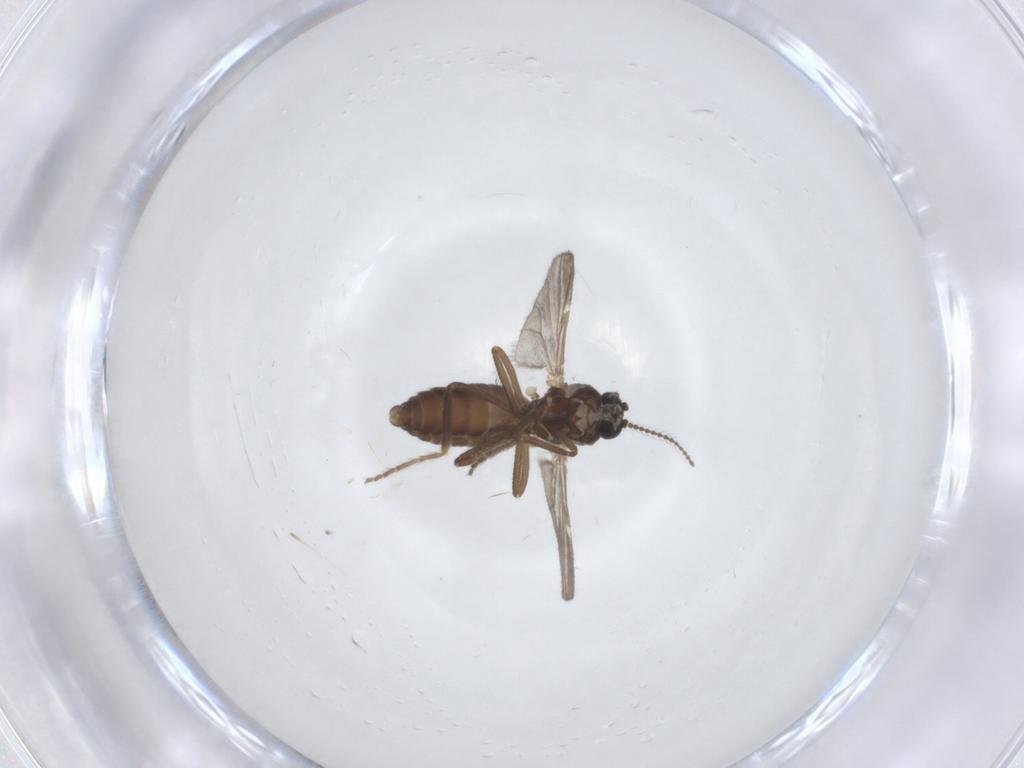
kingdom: Animalia
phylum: Arthropoda
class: Insecta
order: Diptera
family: Ceratopogonidae
